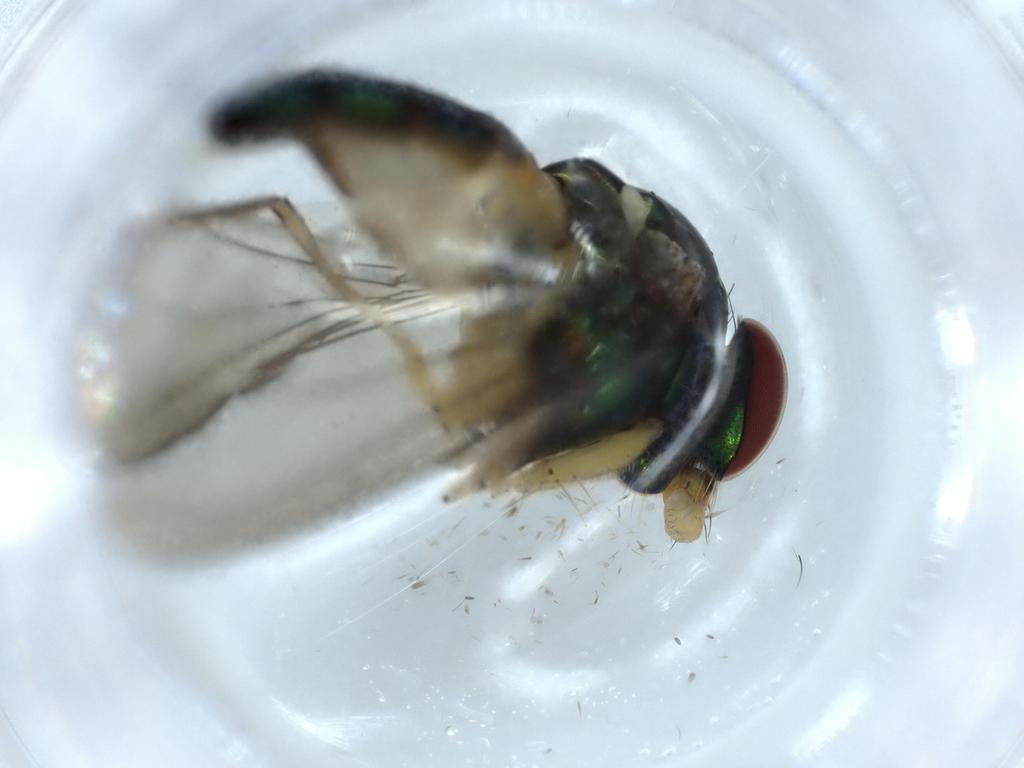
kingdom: Animalia
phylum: Arthropoda
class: Insecta
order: Diptera
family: Dolichopodidae
